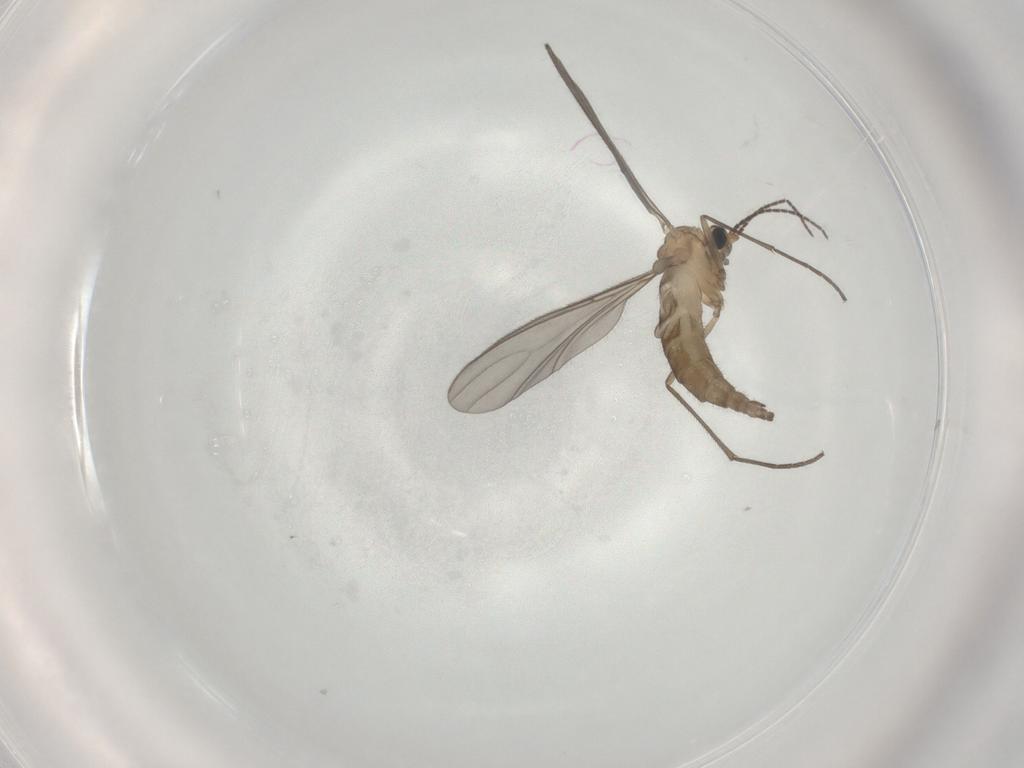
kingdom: Animalia
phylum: Arthropoda
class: Insecta
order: Diptera
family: Sciaridae
